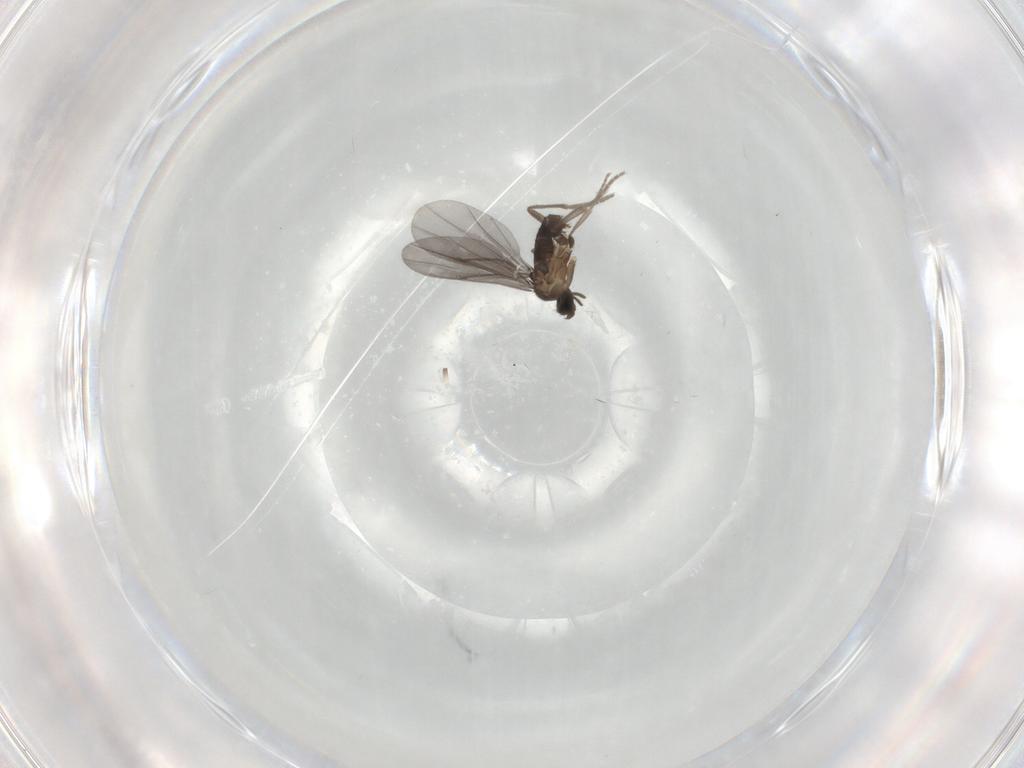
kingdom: Animalia
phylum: Arthropoda
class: Insecta
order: Diptera
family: Phoridae
